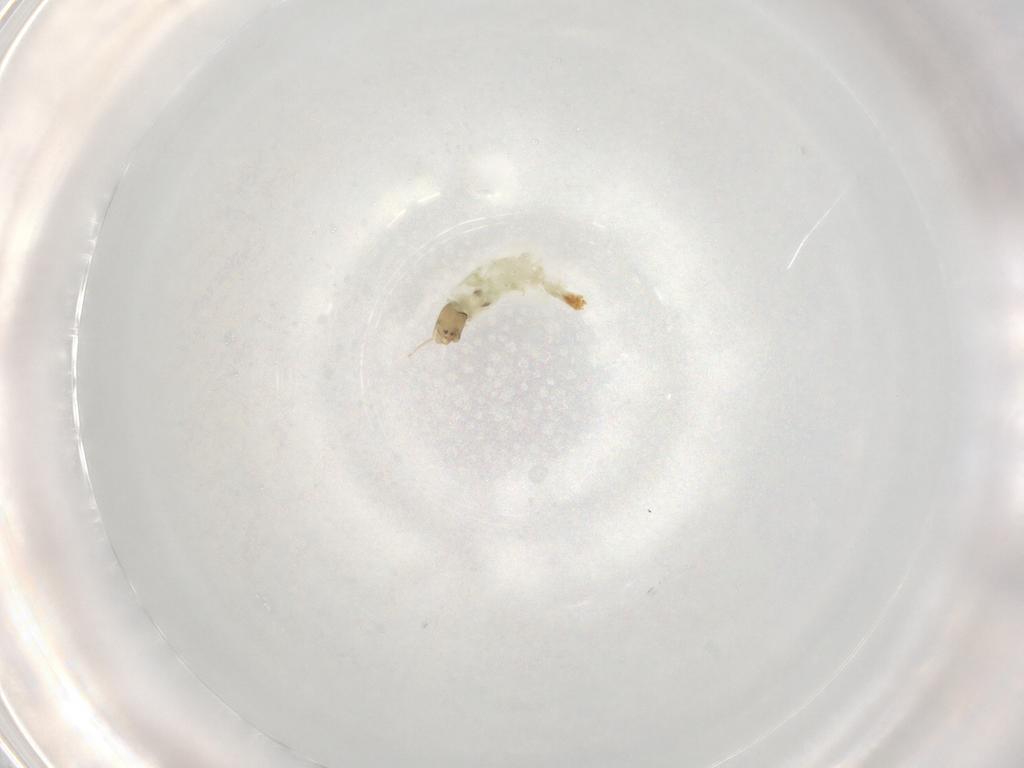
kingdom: Animalia
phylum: Arthropoda
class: Insecta
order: Diptera
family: Chironomidae
